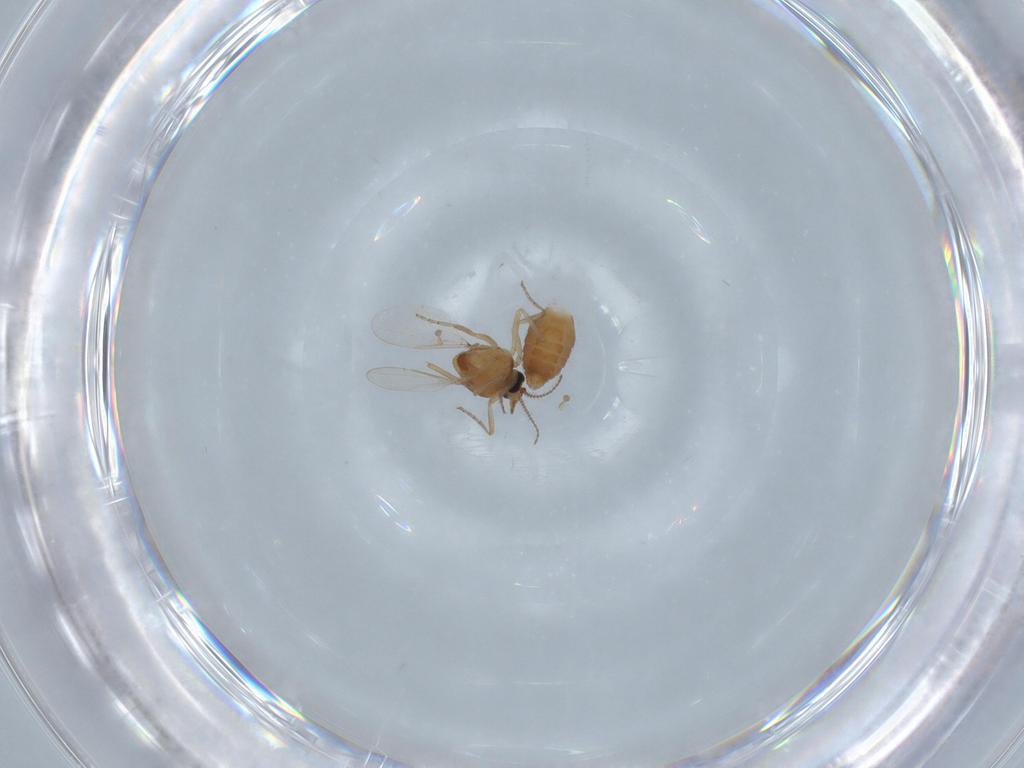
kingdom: Animalia
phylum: Arthropoda
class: Insecta
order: Diptera
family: Ceratopogonidae
